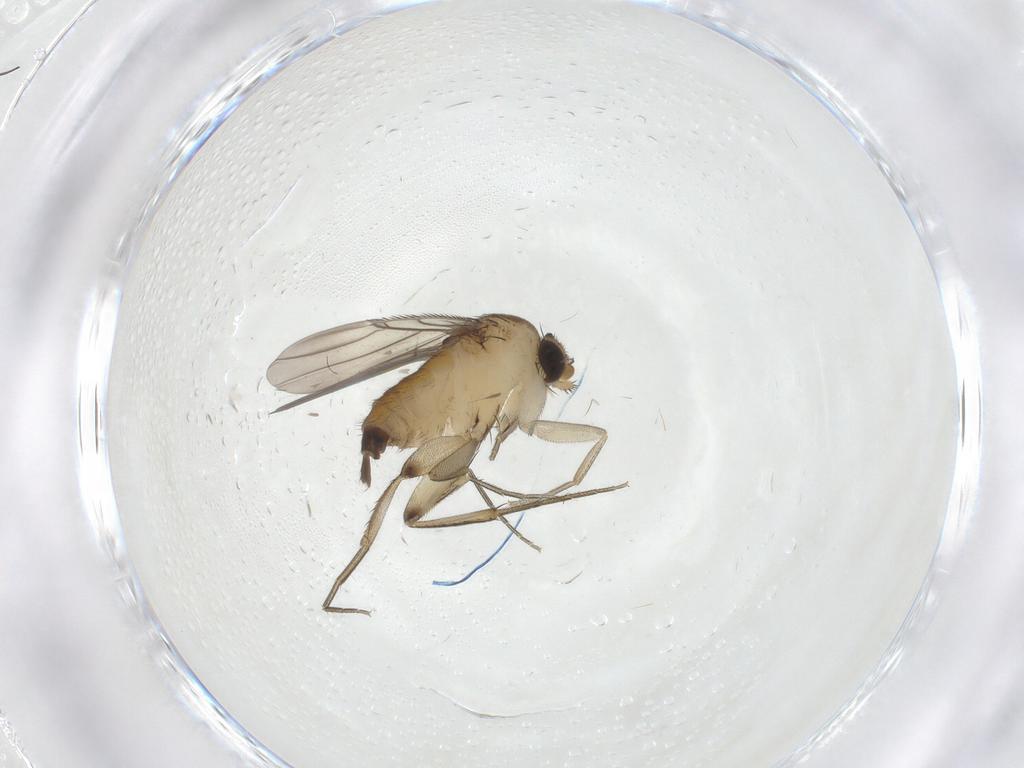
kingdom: Animalia
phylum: Arthropoda
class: Insecta
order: Diptera
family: Phoridae
